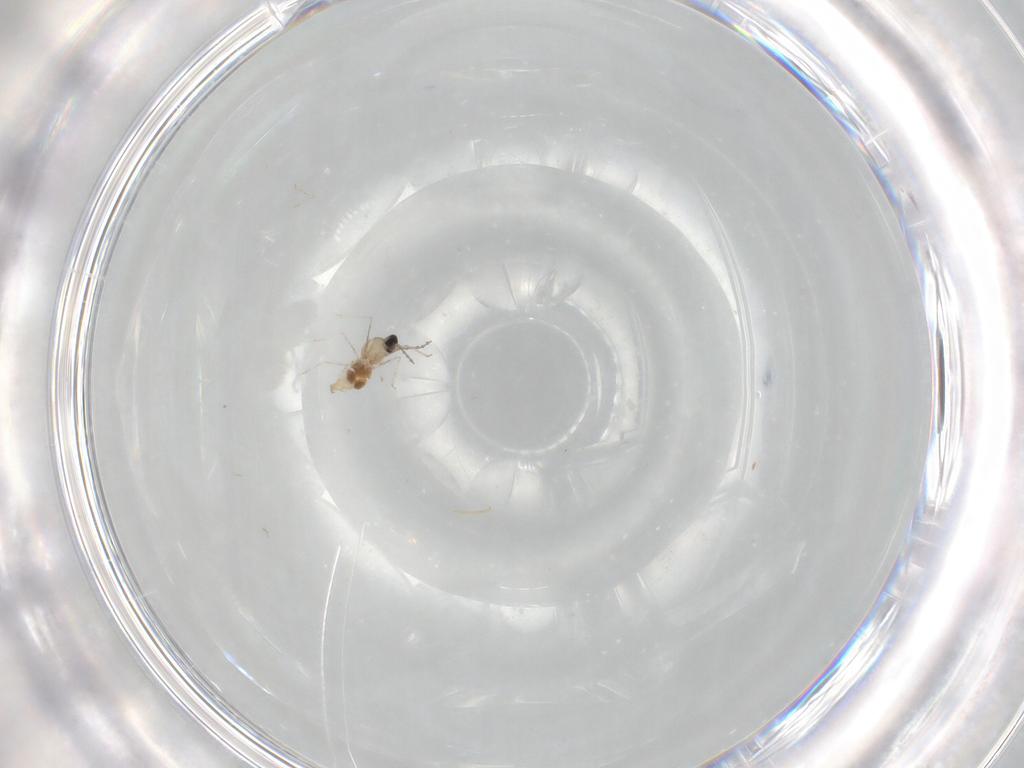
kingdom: Animalia
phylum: Arthropoda
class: Insecta
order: Diptera
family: Cecidomyiidae
